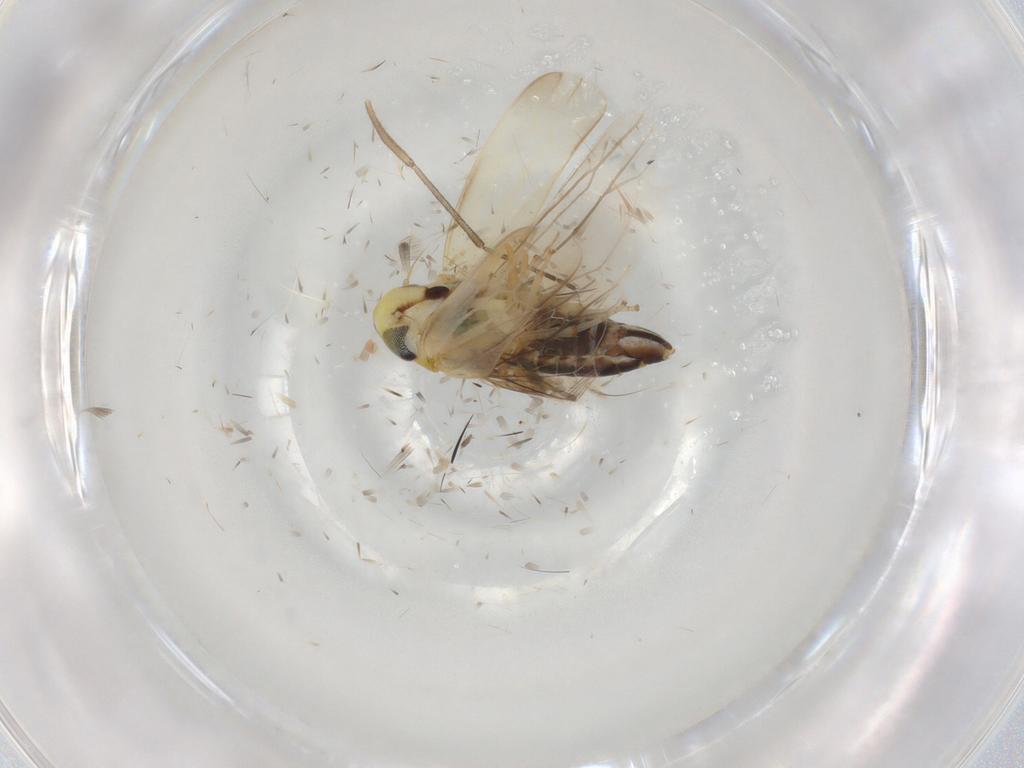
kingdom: Animalia
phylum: Arthropoda
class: Insecta
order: Hemiptera
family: Cicadellidae
